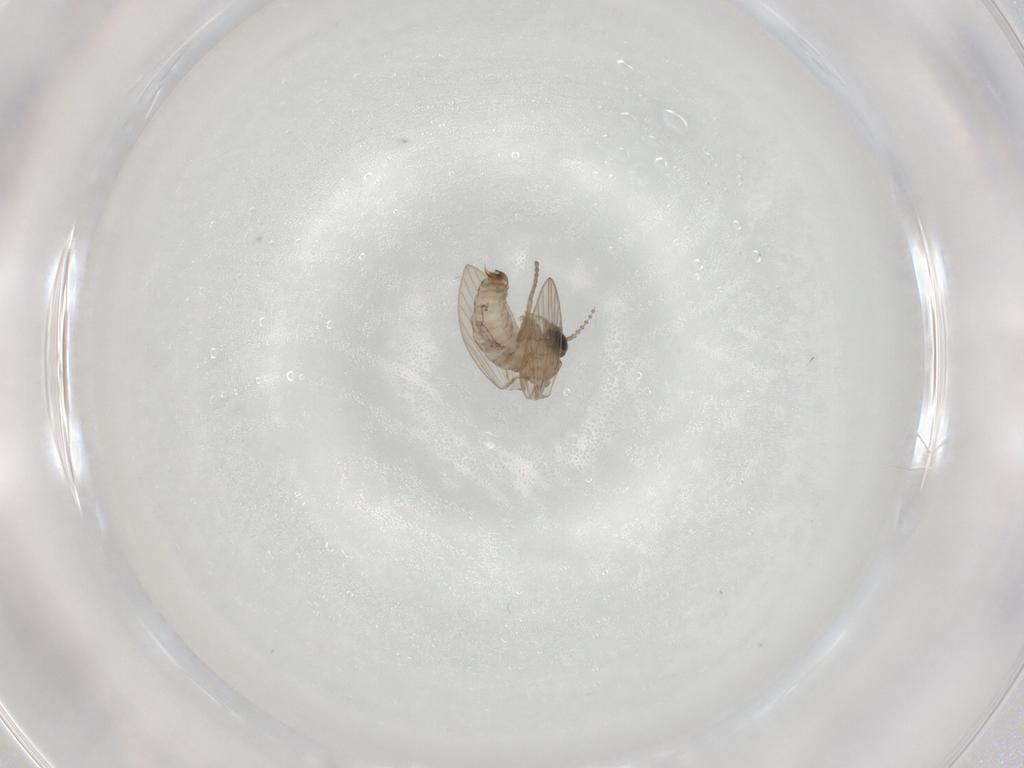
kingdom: Animalia
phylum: Arthropoda
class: Insecta
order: Diptera
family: Psychodidae
